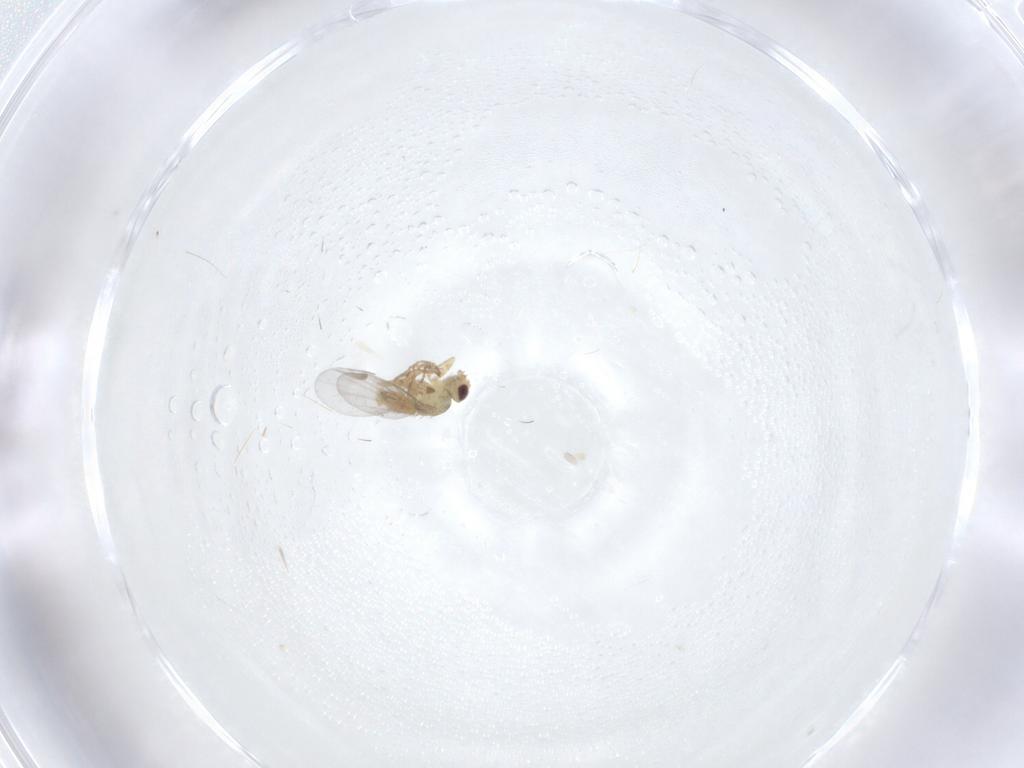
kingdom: Animalia
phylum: Arthropoda
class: Insecta
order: Diptera
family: Agromyzidae
